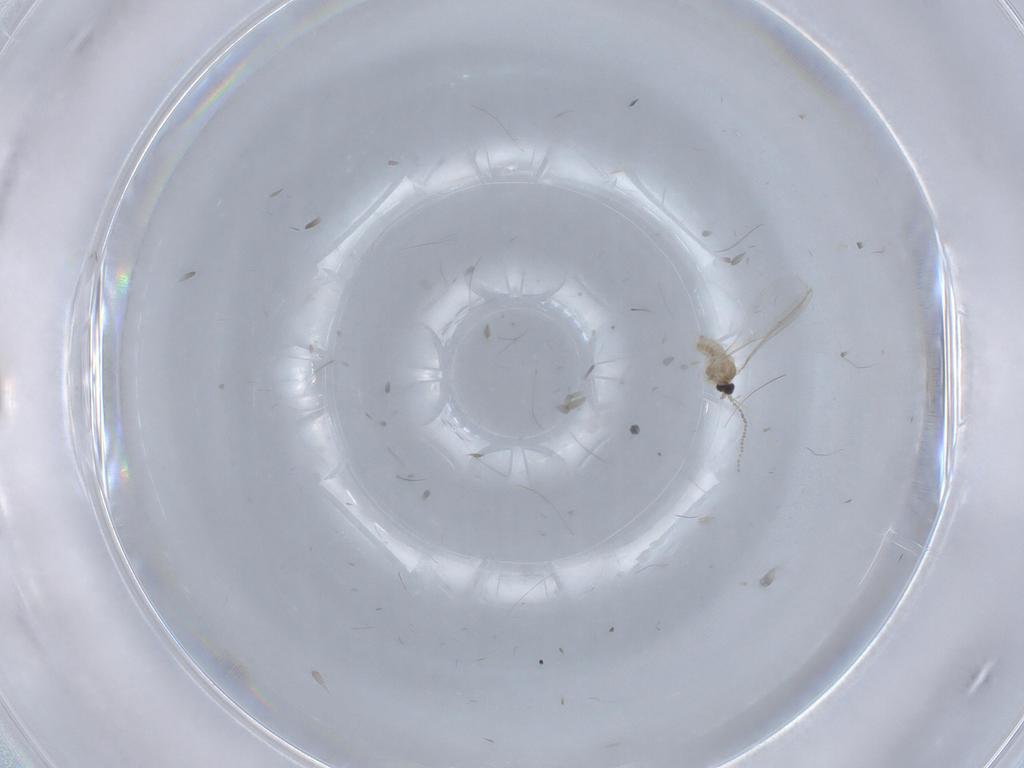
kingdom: Animalia
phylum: Arthropoda
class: Insecta
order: Diptera
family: Cecidomyiidae
